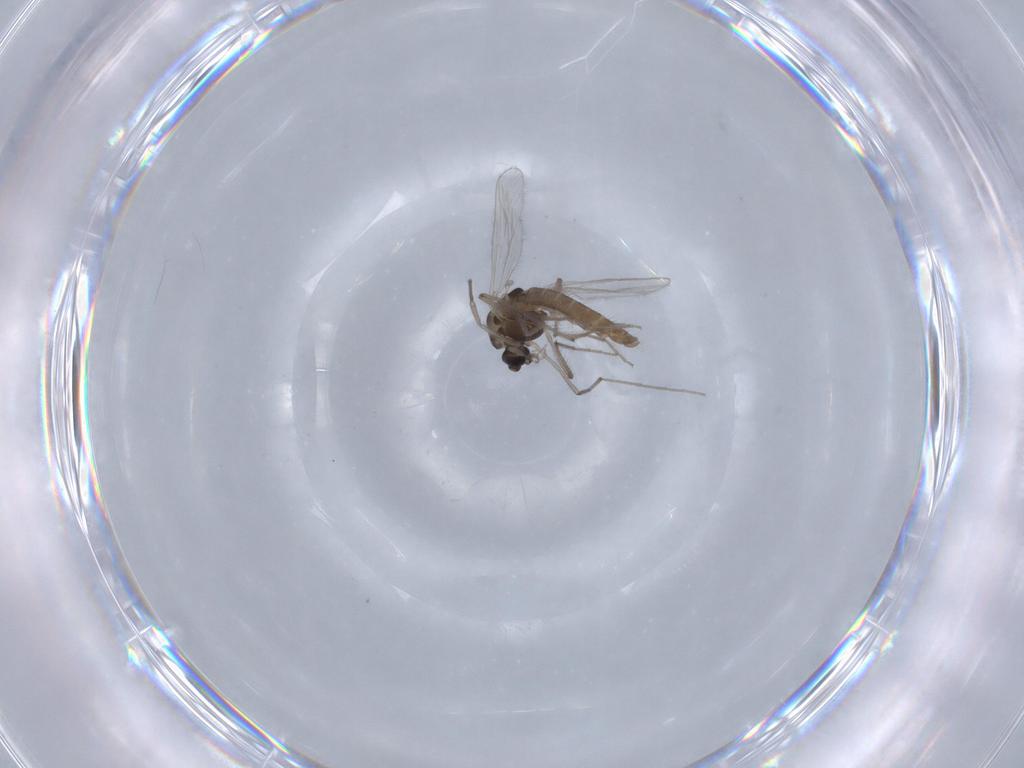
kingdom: Animalia
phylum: Arthropoda
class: Insecta
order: Diptera
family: Chironomidae
